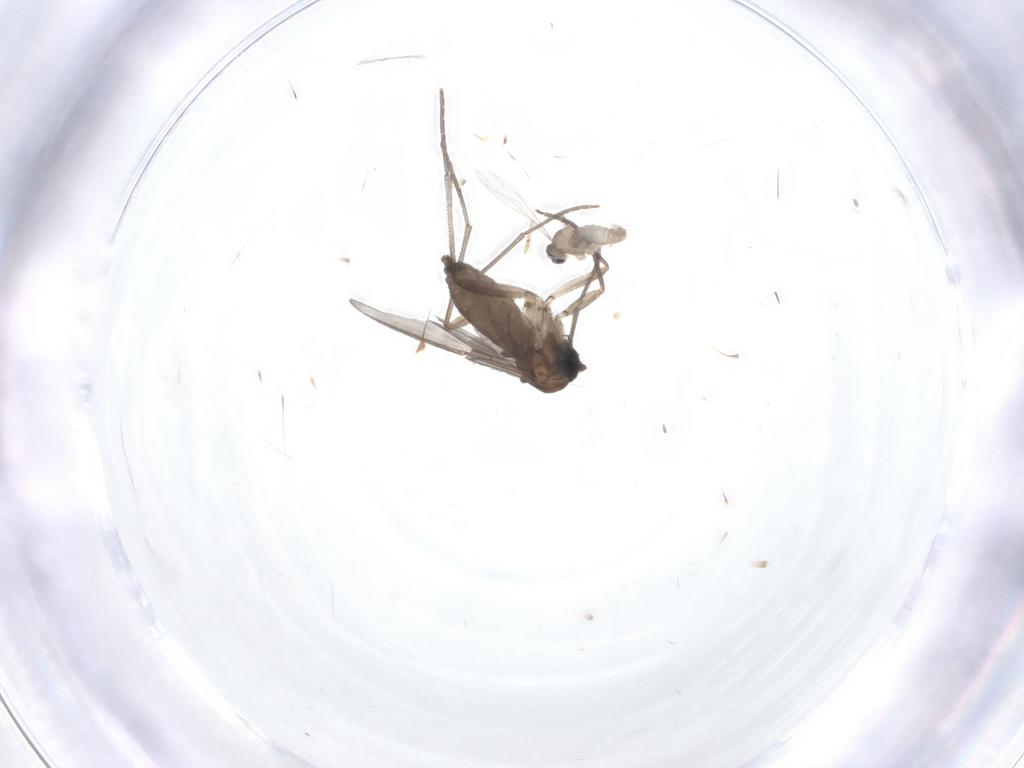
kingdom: Animalia
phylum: Arthropoda
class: Insecta
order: Diptera
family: Cecidomyiidae
